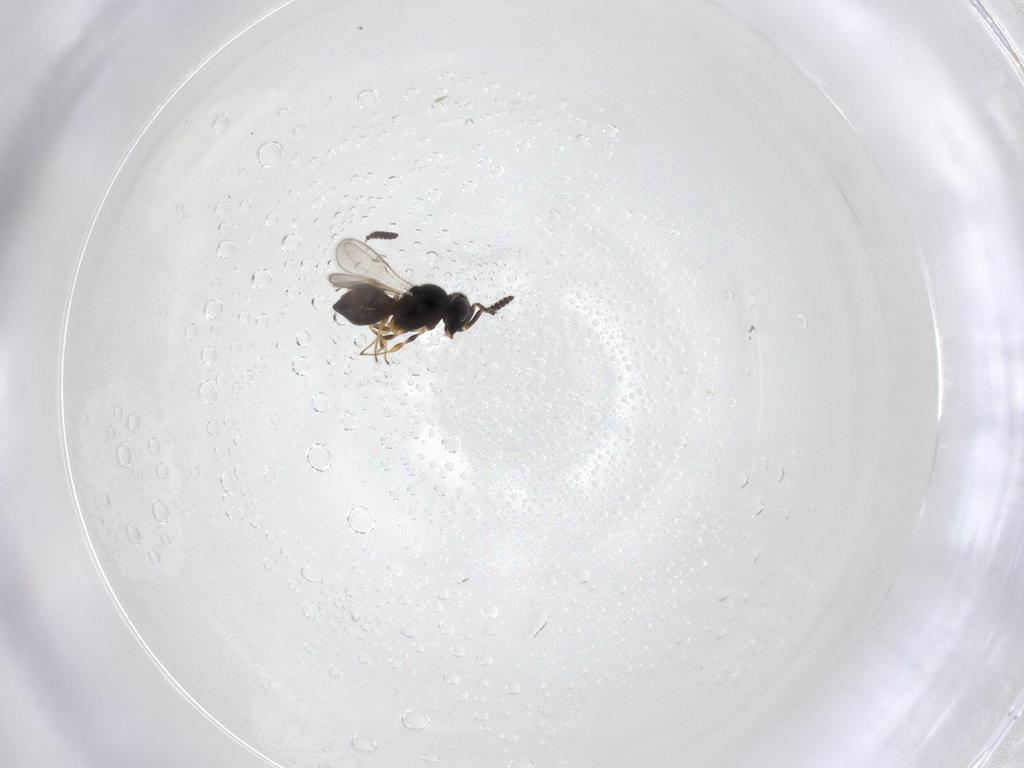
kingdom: Animalia
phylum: Arthropoda
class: Insecta
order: Hymenoptera
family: Scelionidae
